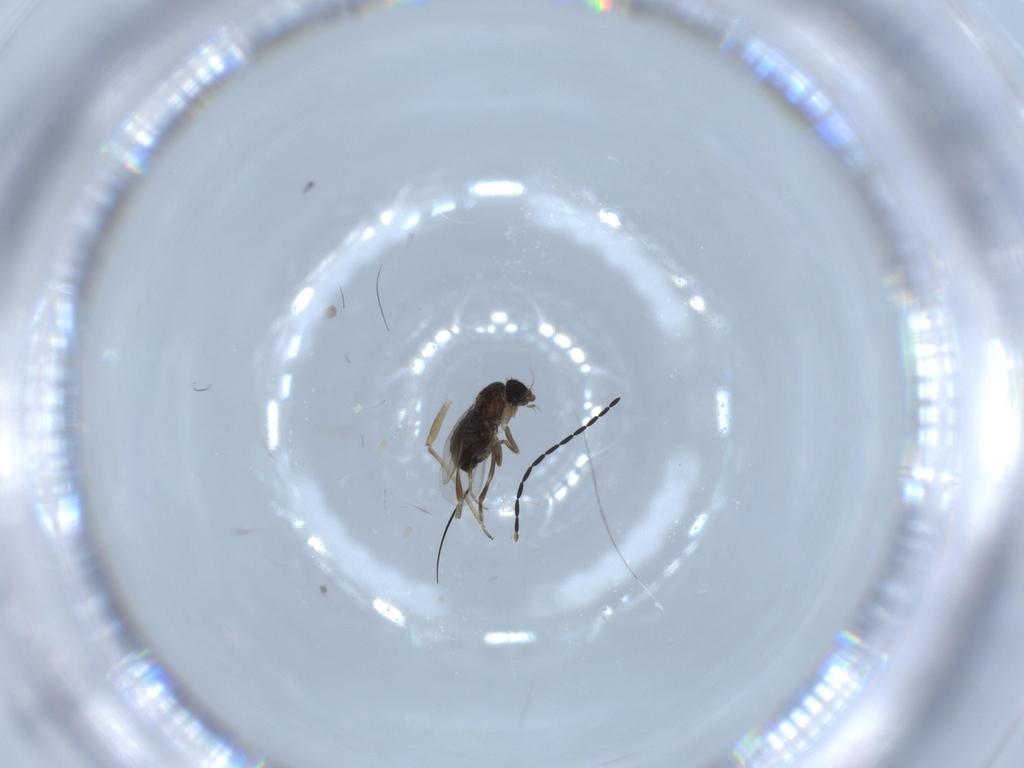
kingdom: Animalia
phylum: Arthropoda
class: Insecta
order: Diptera
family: Phoridae
